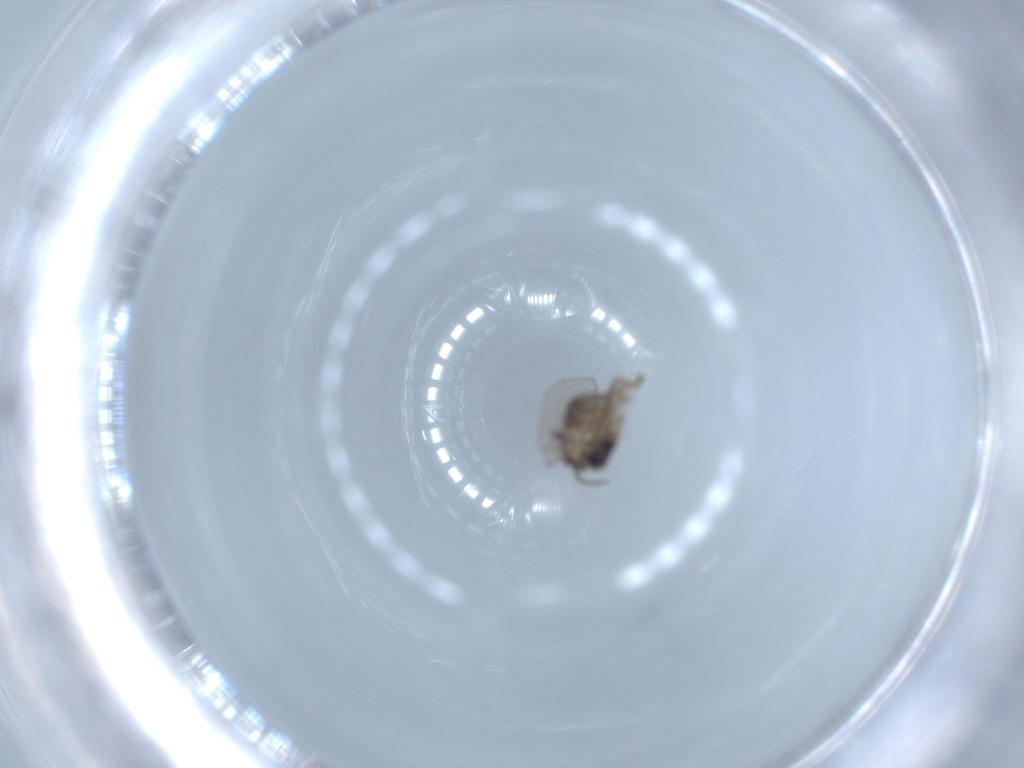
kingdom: Animalia
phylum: Arthropoda
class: Insecta
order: Diptera
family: Psychodidae
